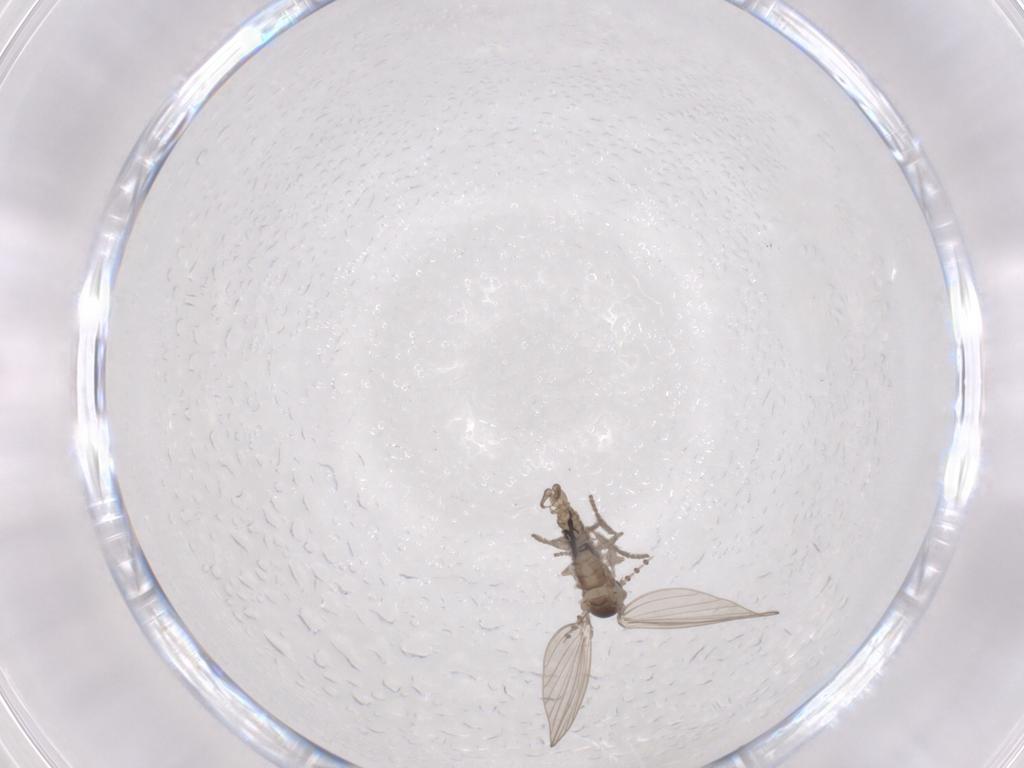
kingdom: Animalia
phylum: Arthropoda
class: Insecta
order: Diptera
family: Psychodidae
